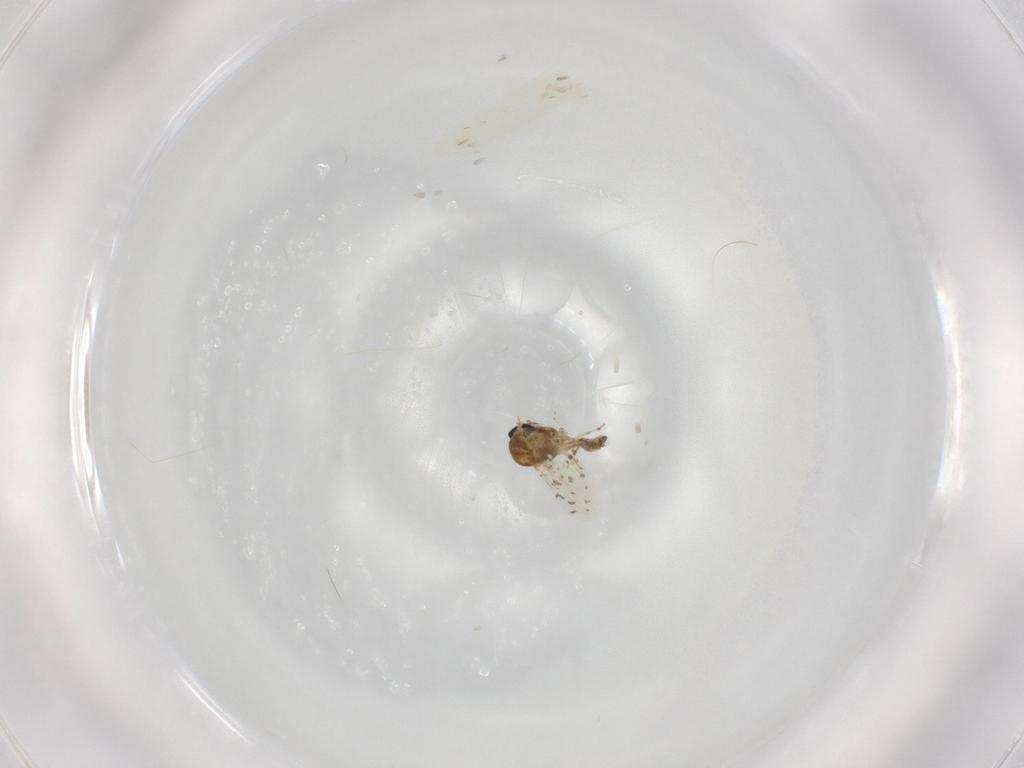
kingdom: Animalia
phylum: Arthropoda
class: Insecta
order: Diptera
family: Ceratopogonidae
